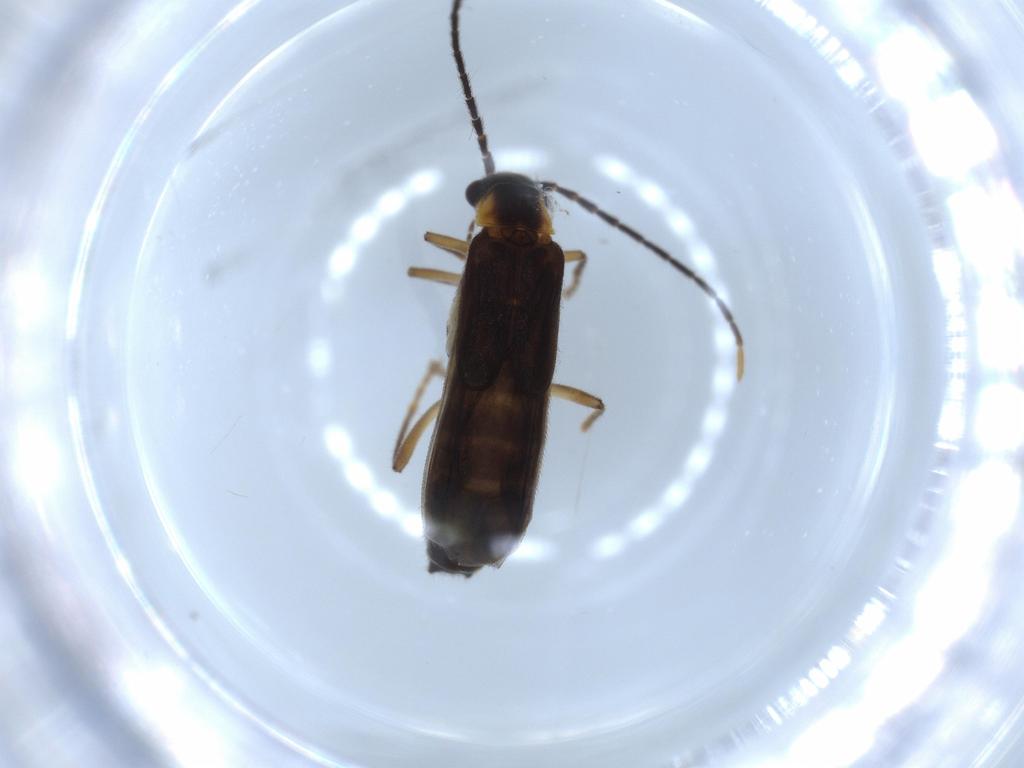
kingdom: Animalia
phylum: Arthropoda
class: Insecta
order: Coleoptera
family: Cantharidae
